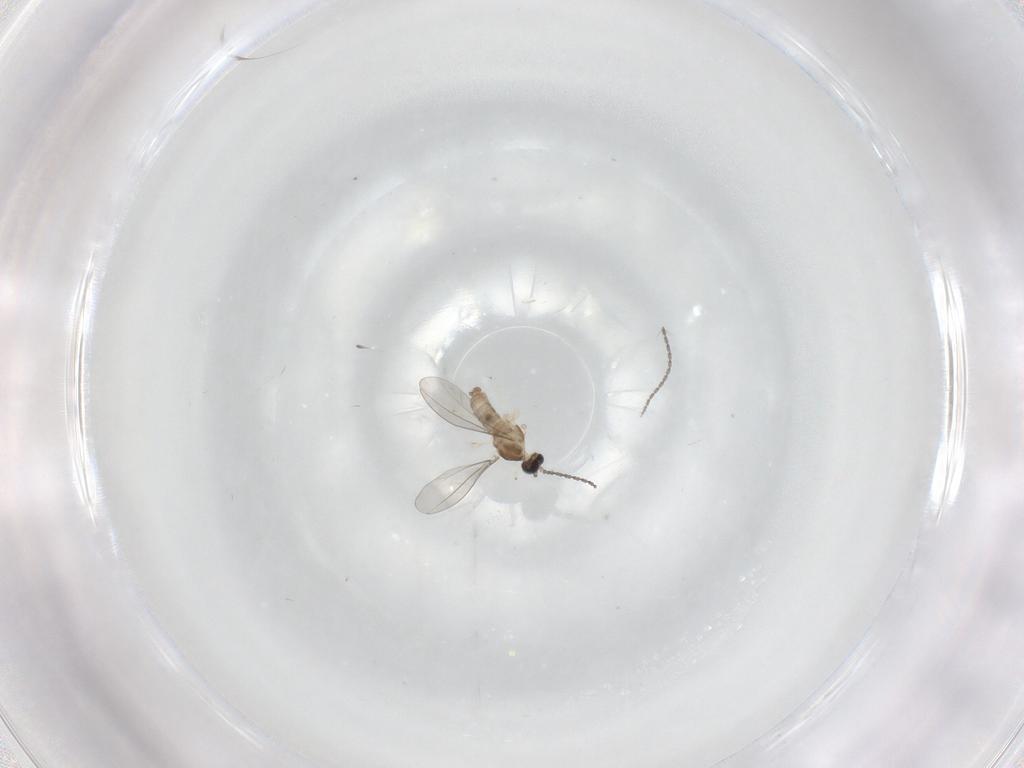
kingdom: Animalia
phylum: Arthropoda
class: Insecta
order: Diptera
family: Cecidomyiidae
